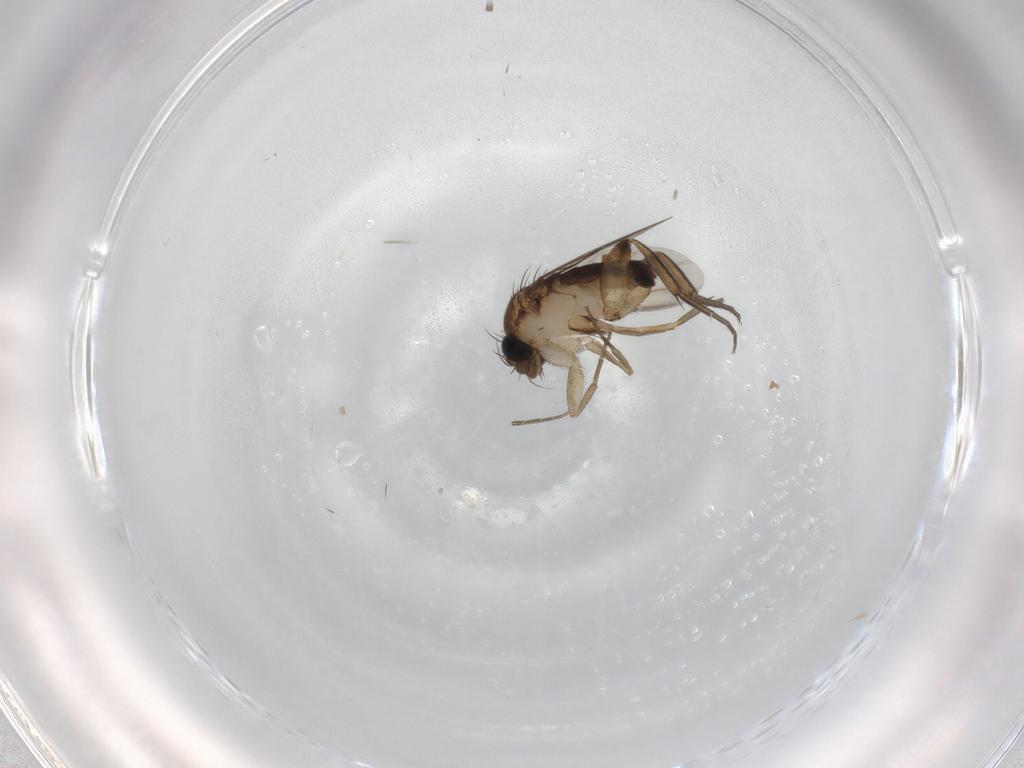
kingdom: Animalia
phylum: Arthropoda
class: Insecta
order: Diptera
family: Phoridae
